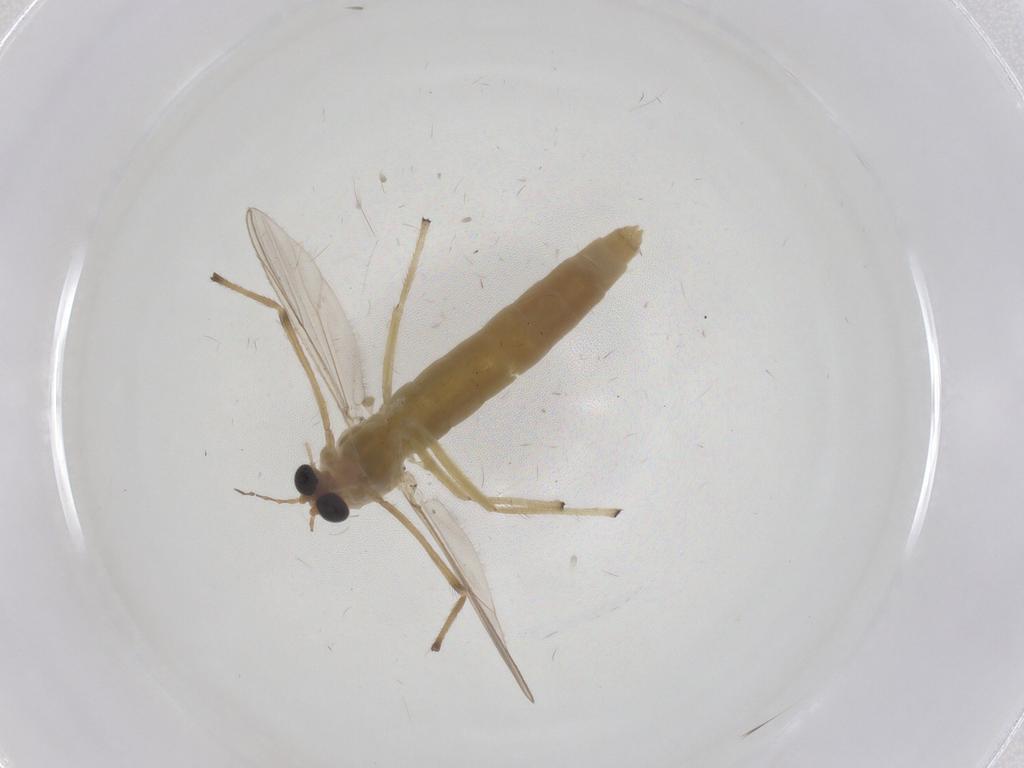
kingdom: Animalia
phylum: Arthropoda
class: Insecta
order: Diptera
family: Chironomidae
